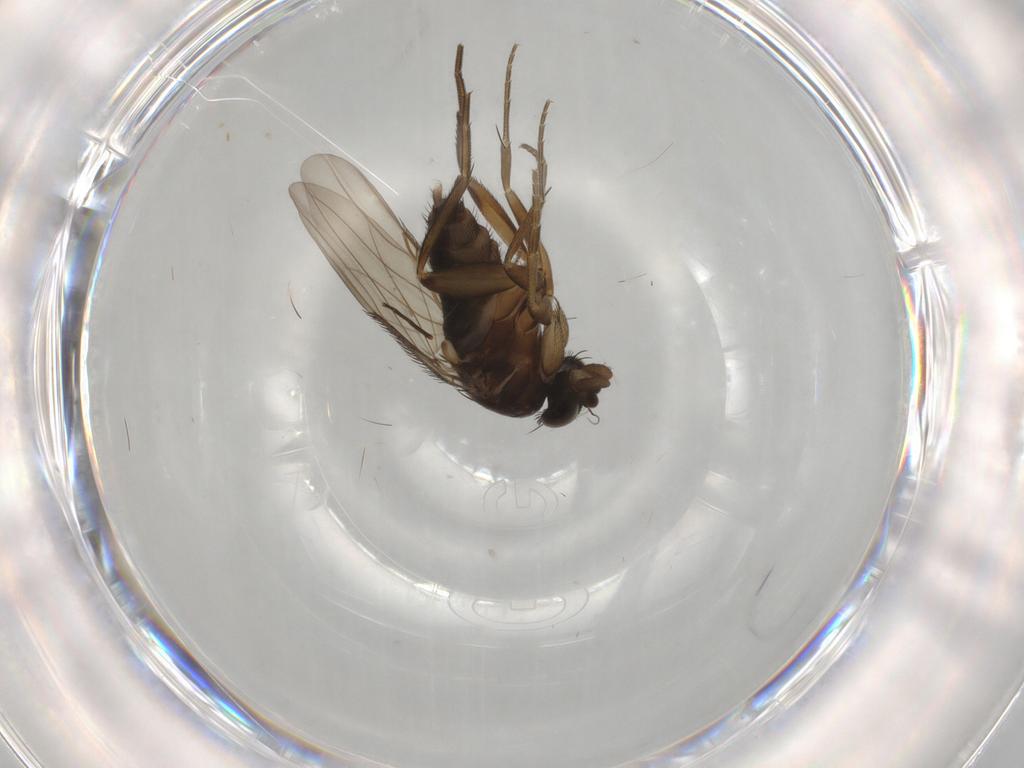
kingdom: Animalia
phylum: Arthropoda
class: Insecta
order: Diptera
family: Phoridae
